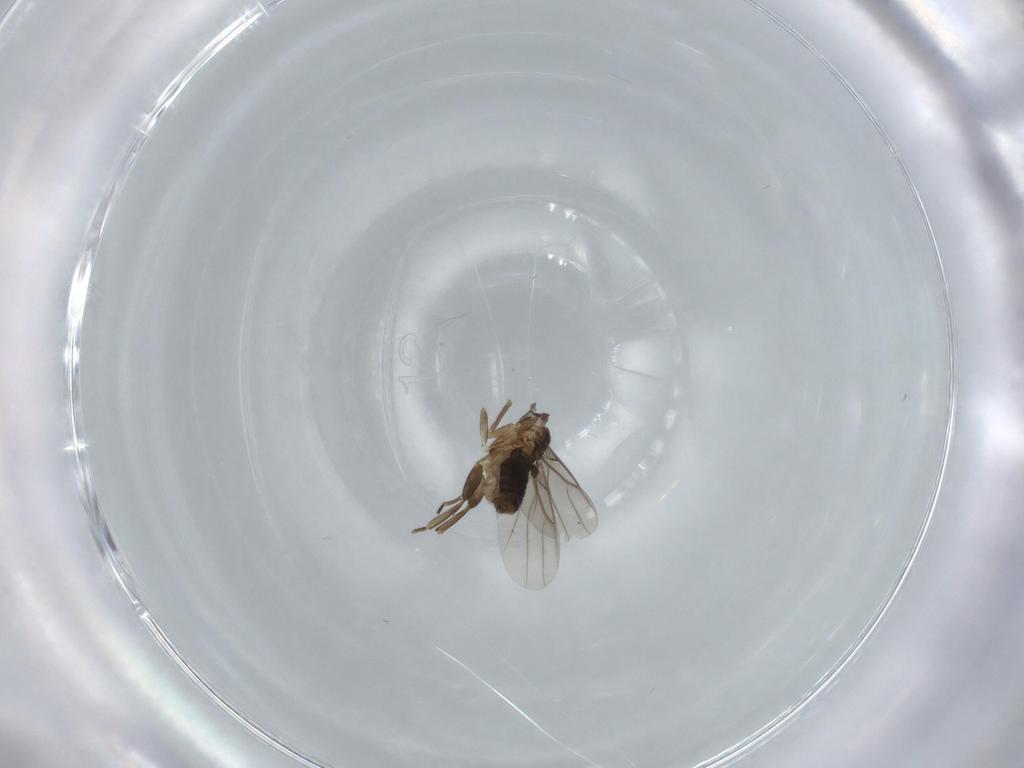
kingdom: Animalia
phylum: Arthropoda
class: Insecta
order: Diptera
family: Phoridae
